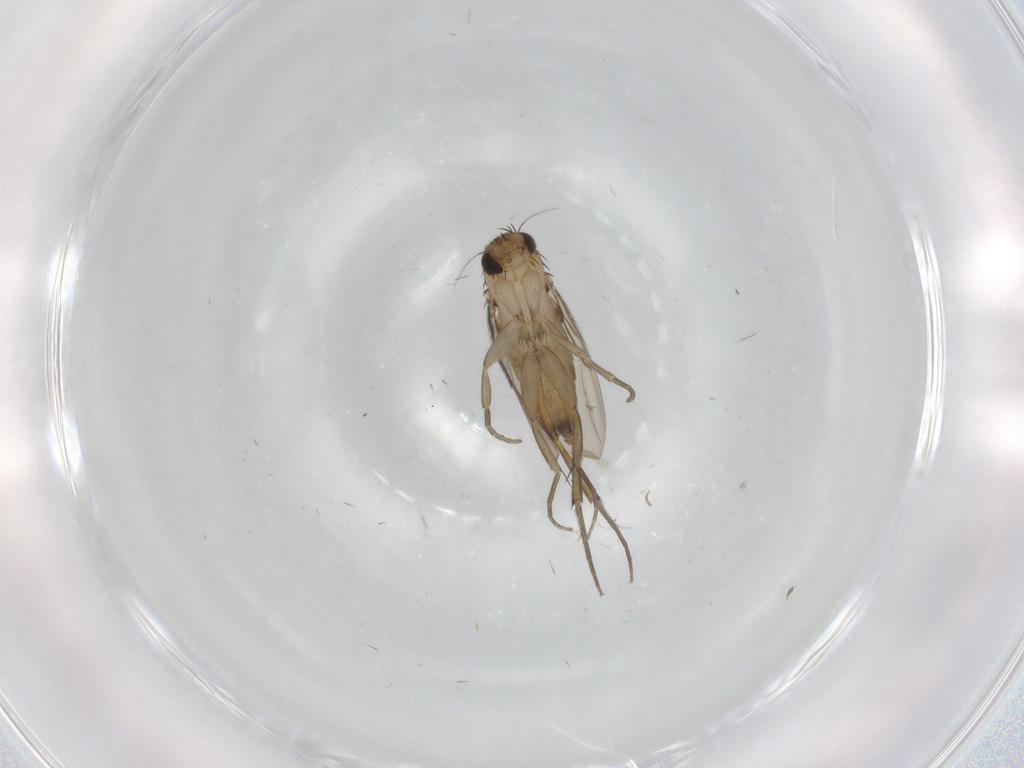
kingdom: Animalia
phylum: Arthropoda
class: Insecta
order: Diptera
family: Phoridae
